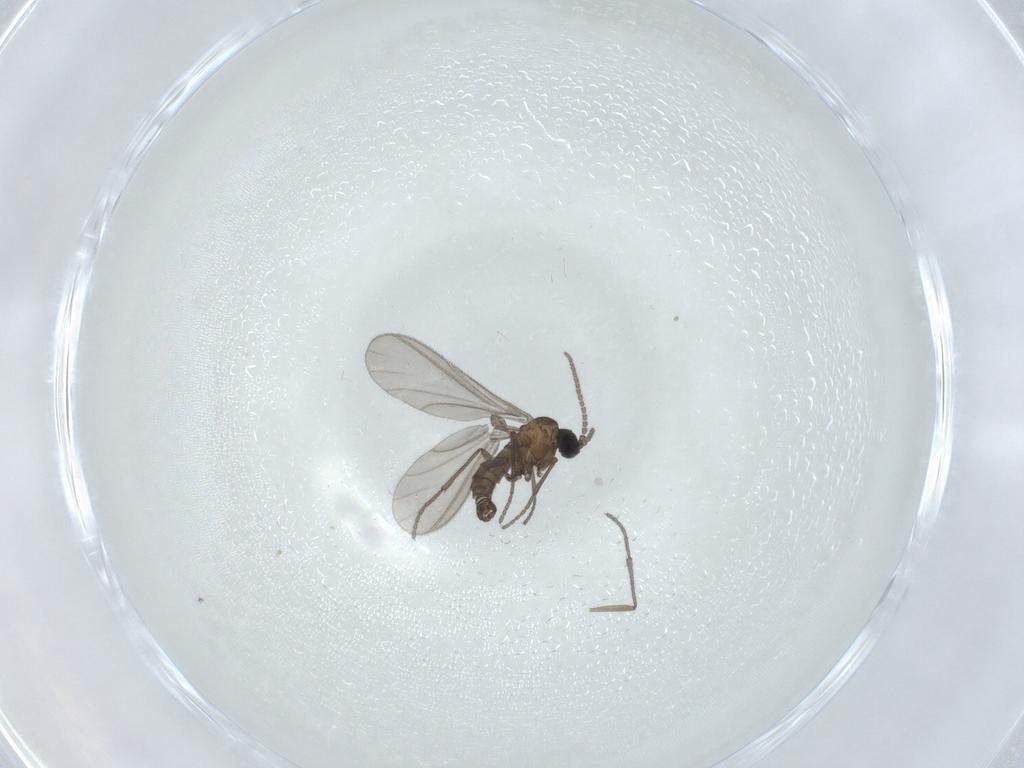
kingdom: Animalia
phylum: Arthropoda
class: Insecta
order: Diptera
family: Sciaridae
